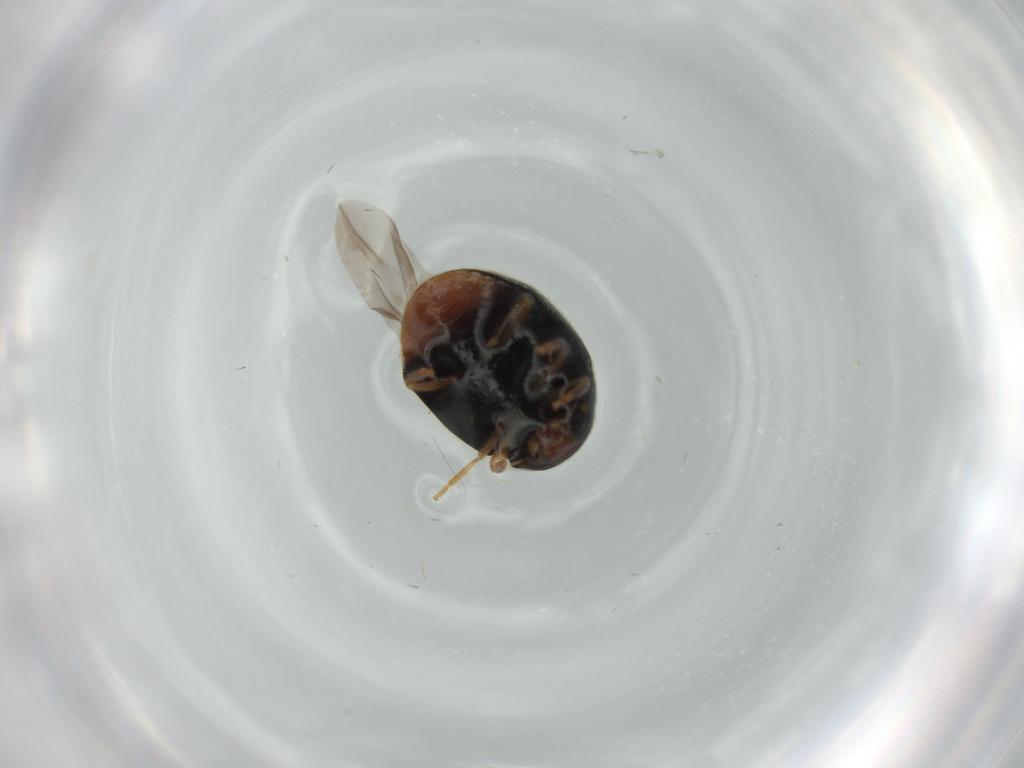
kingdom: Animalia
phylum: Arthropoda
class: Insecta
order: Coleoptera
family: Coccinellidae
